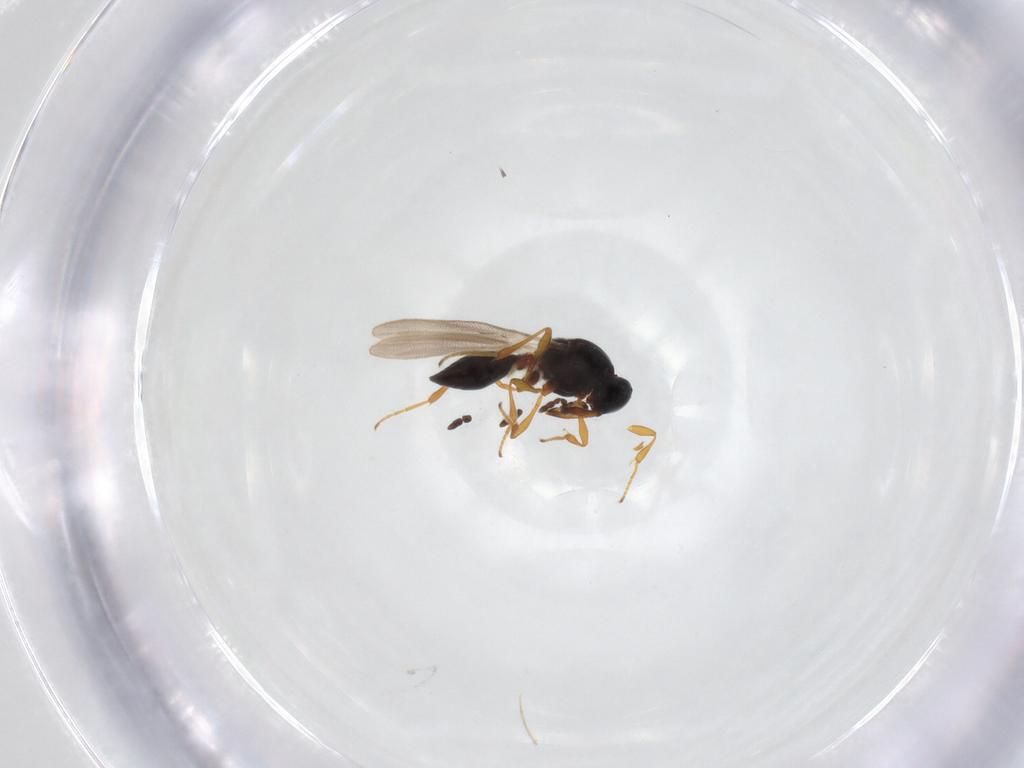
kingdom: Animalia
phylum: Arthropoda
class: Insecta
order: Hymenoptera
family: Platygastridae
